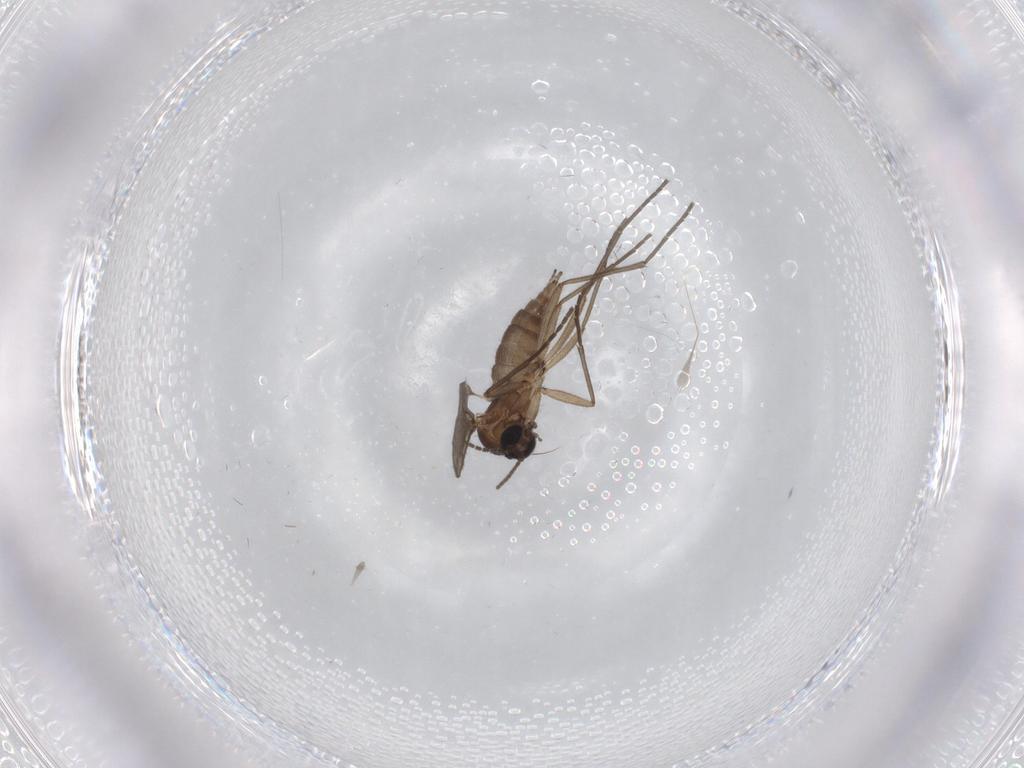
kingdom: Animalia
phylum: Arthropoda
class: Insecta
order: Diptera
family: Sciaridae
